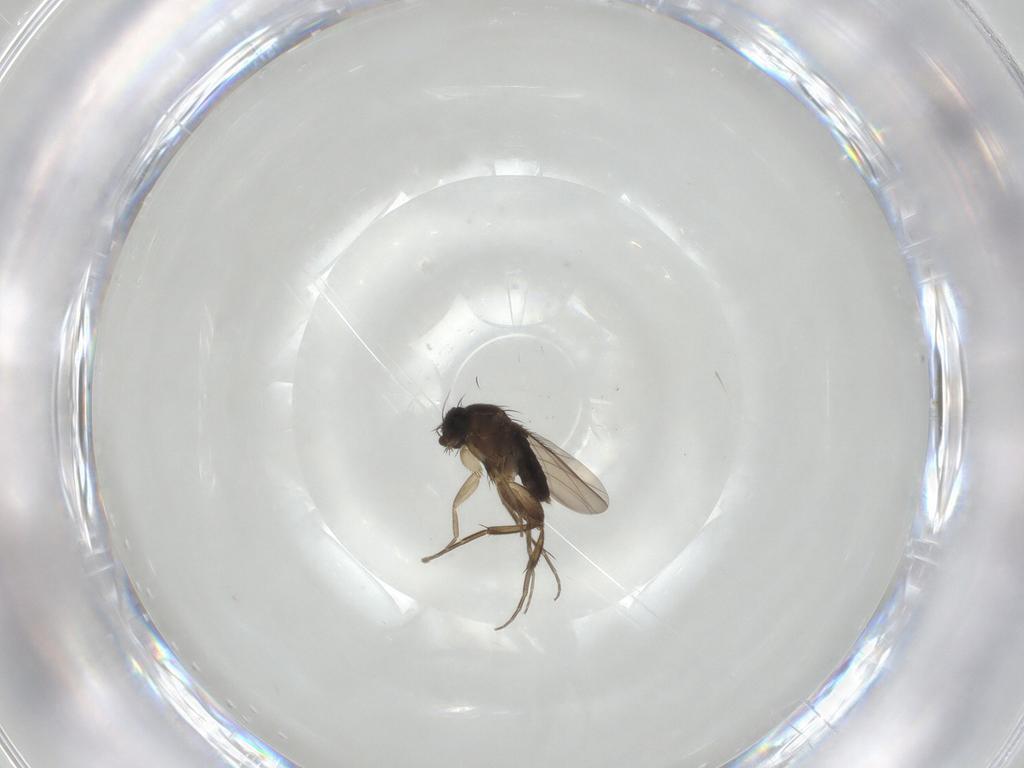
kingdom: Animalia
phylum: Arthropoda
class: Insecta
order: Diptera
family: Phoridae
